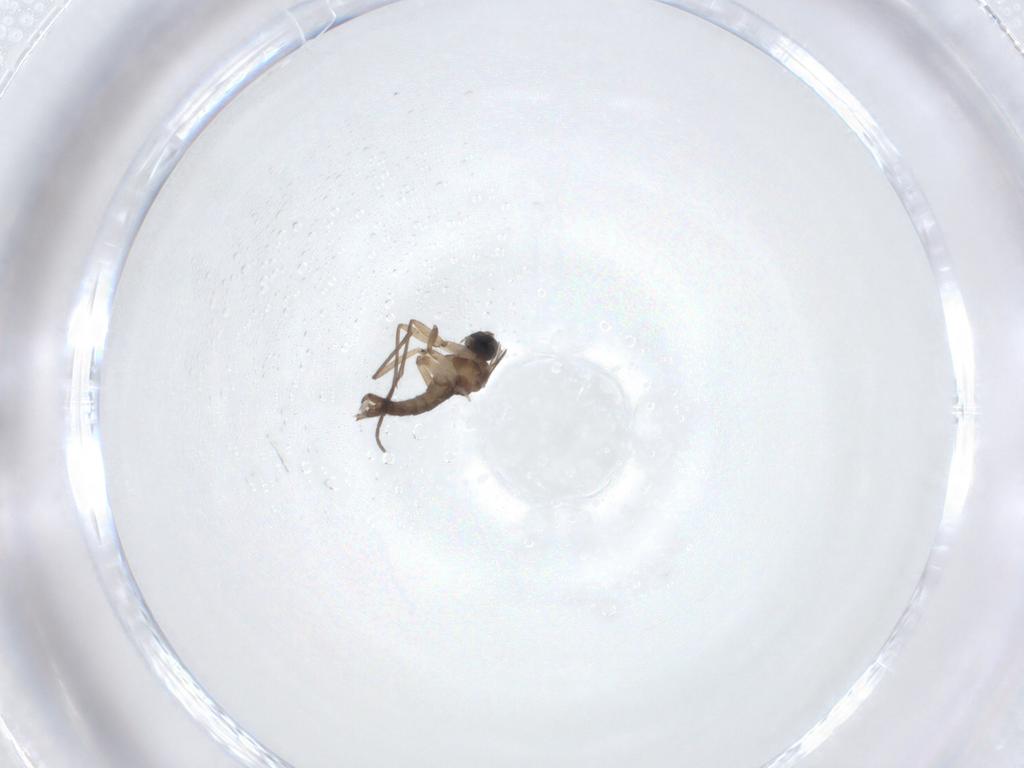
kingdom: Animalia
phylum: Arthropoda
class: Insecta
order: Diptera
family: Sciaridae
